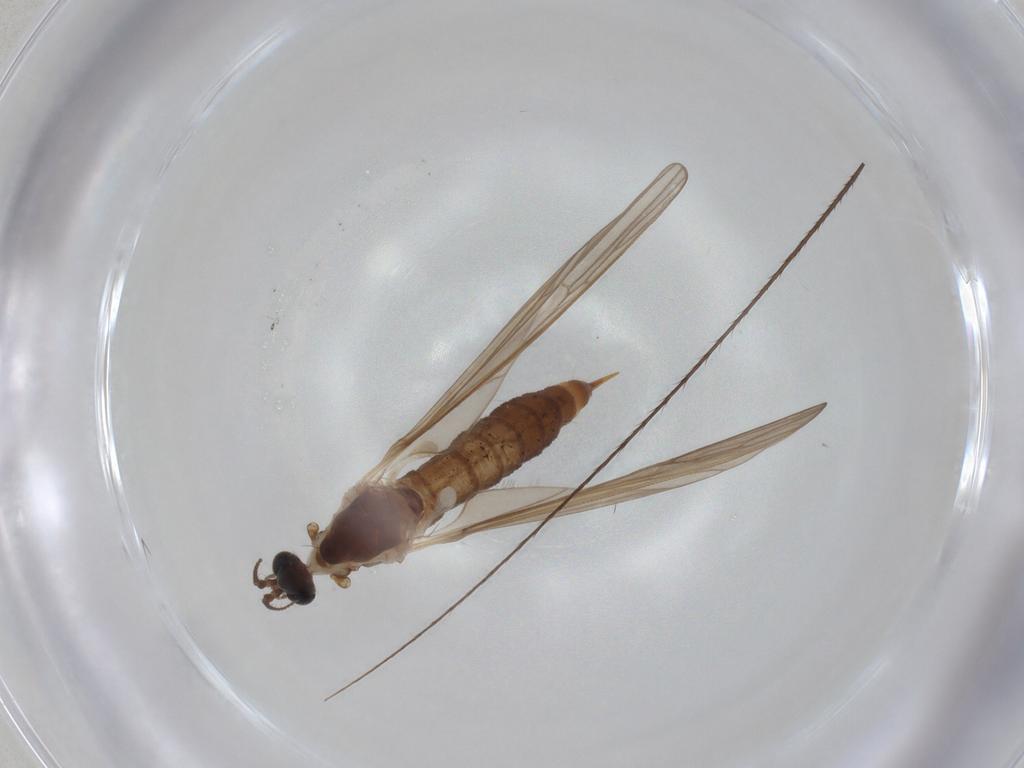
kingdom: Animalia
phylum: Arthropoda
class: Insecta
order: Diptera
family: Limoniidae
